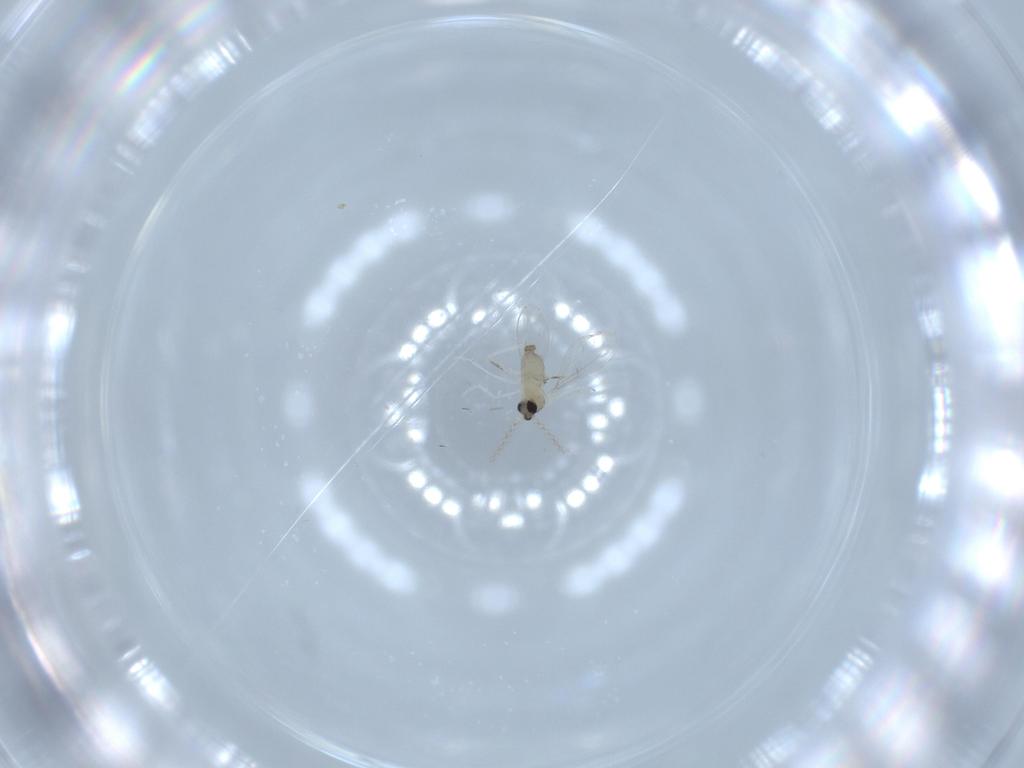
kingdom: Animalia
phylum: Arthropoda
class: Insecta
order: Diptera
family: Cecidomyiidae
